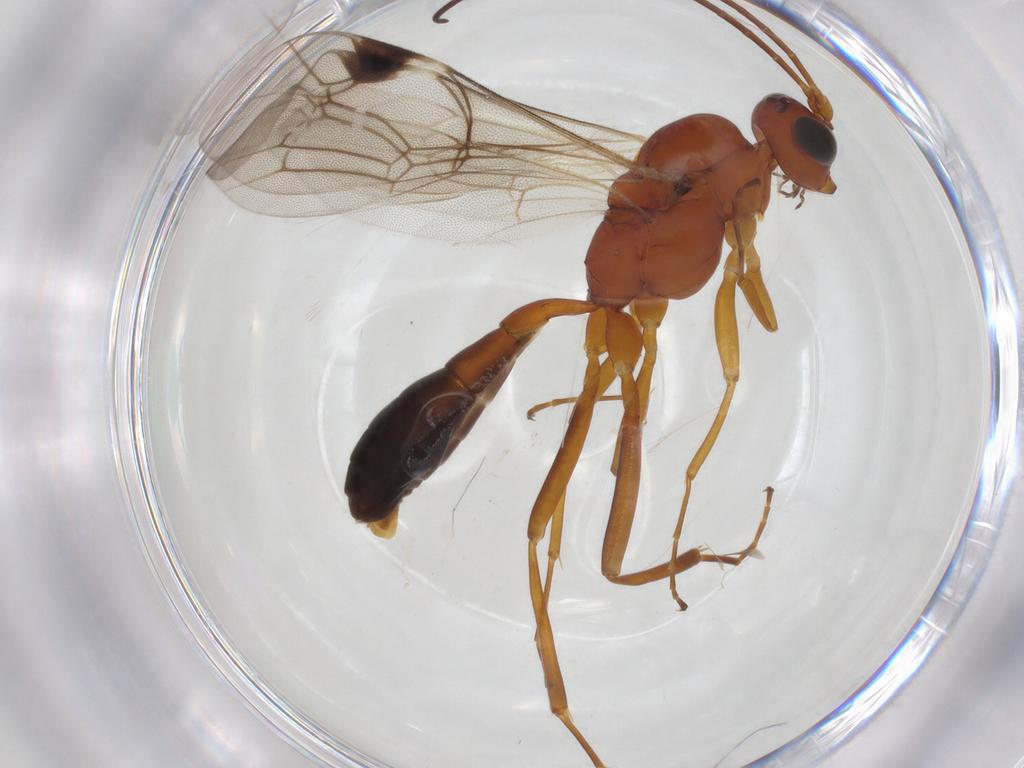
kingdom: Animalia
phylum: Arthropoda
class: Insecta
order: Hymenoptera
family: Ichneumonidae
